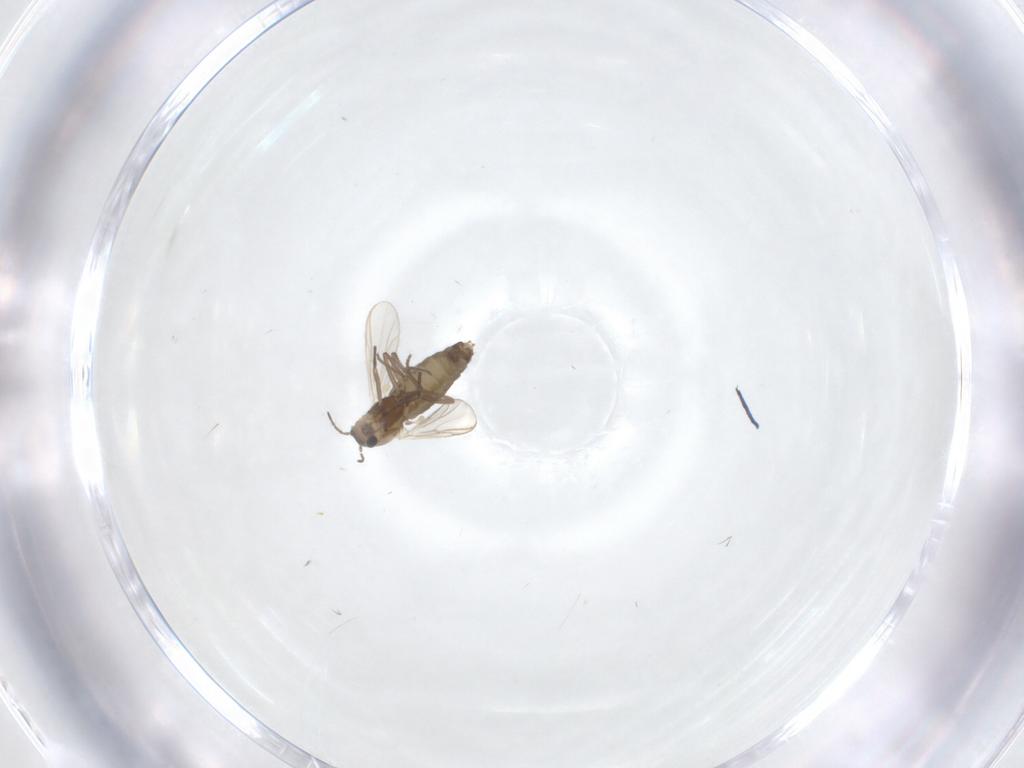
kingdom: Animalia
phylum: Arthropoda
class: Insecta
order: Diptera
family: Chironomidae
